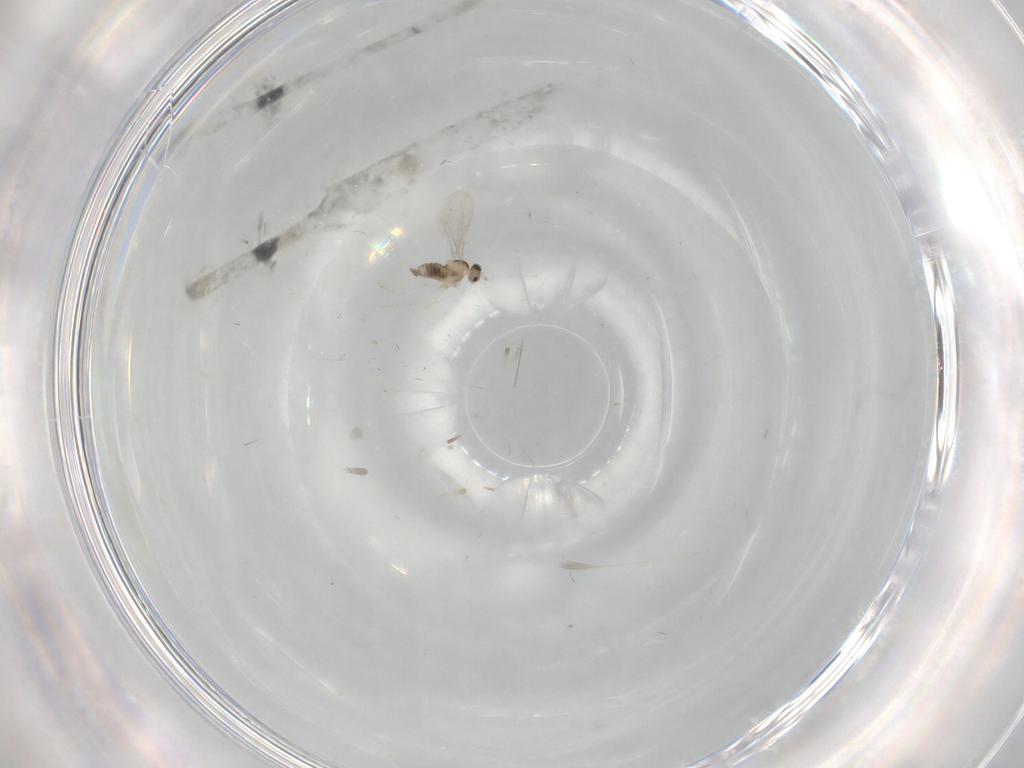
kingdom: Animalia
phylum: Arthropoda
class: Insecta
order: Diptera
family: Cecidomyiidae
